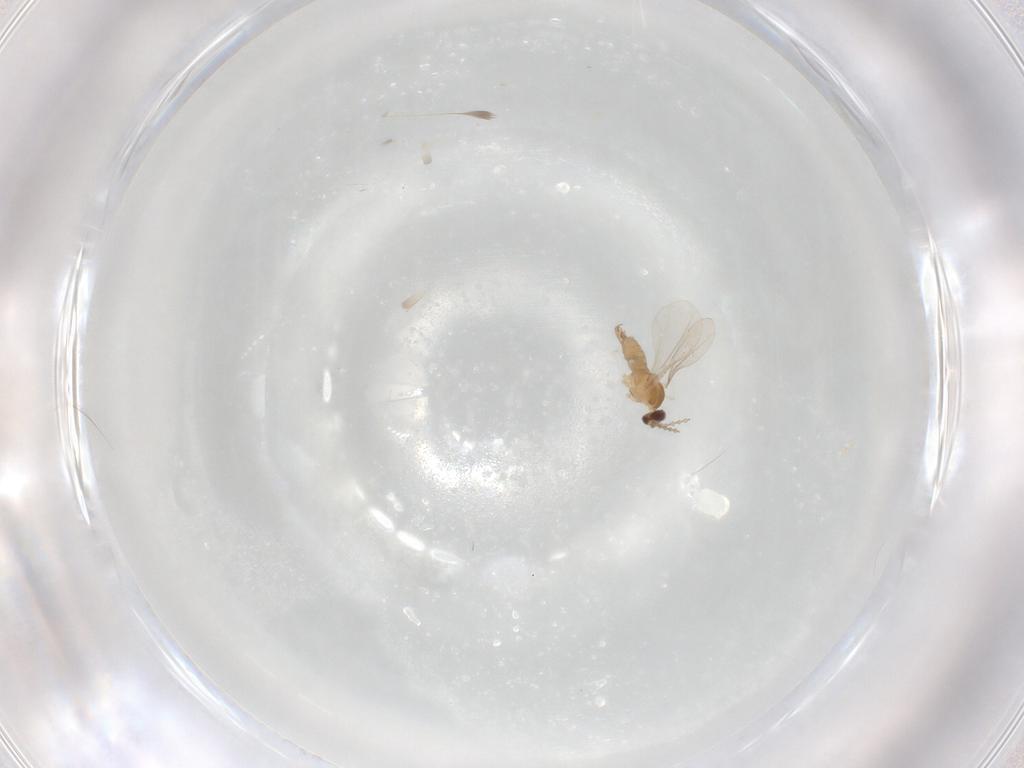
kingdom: Animalia
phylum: Arthropoda
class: Insecta
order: Diptera
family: Cecidomyiidae
